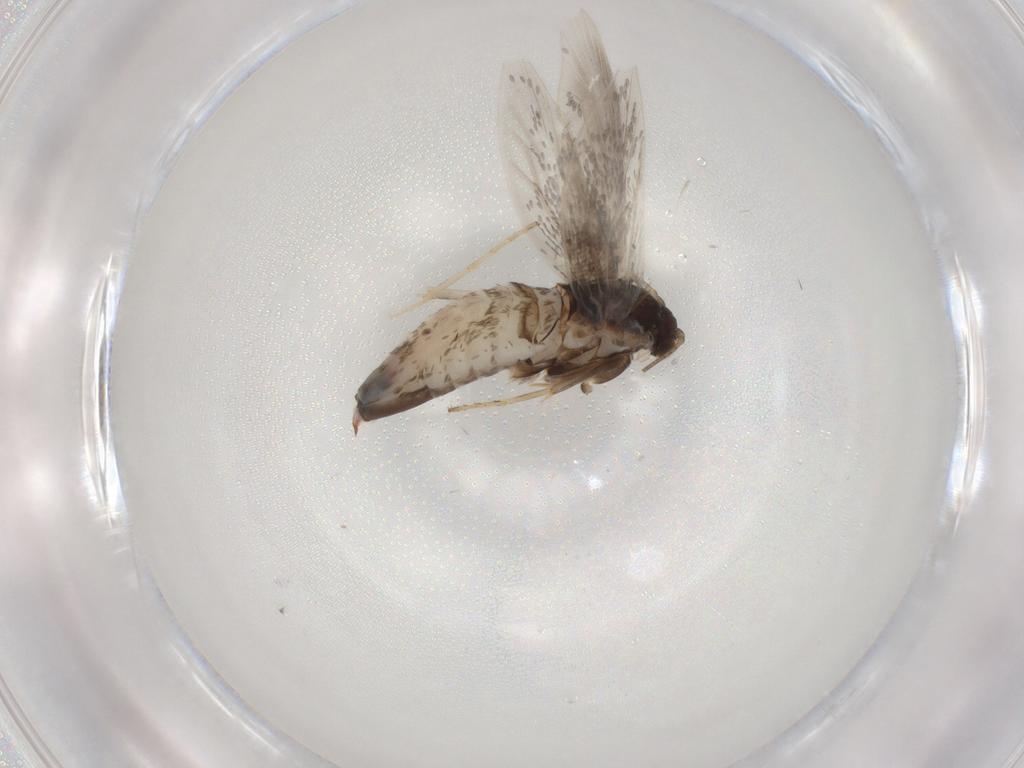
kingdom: Animalia
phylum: Arthropoda
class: Insecta
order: Lepidoptera
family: Incurvariidae
